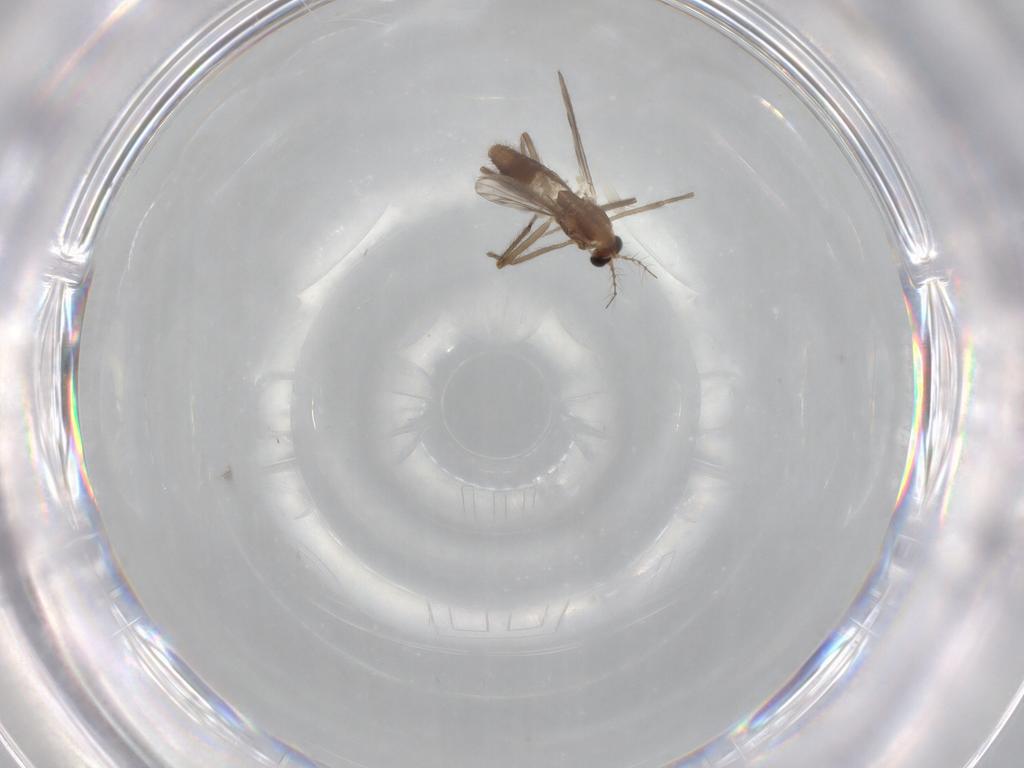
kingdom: Animalia
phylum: Arthropoda
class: Insecta
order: Diptera
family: Chironomidae
